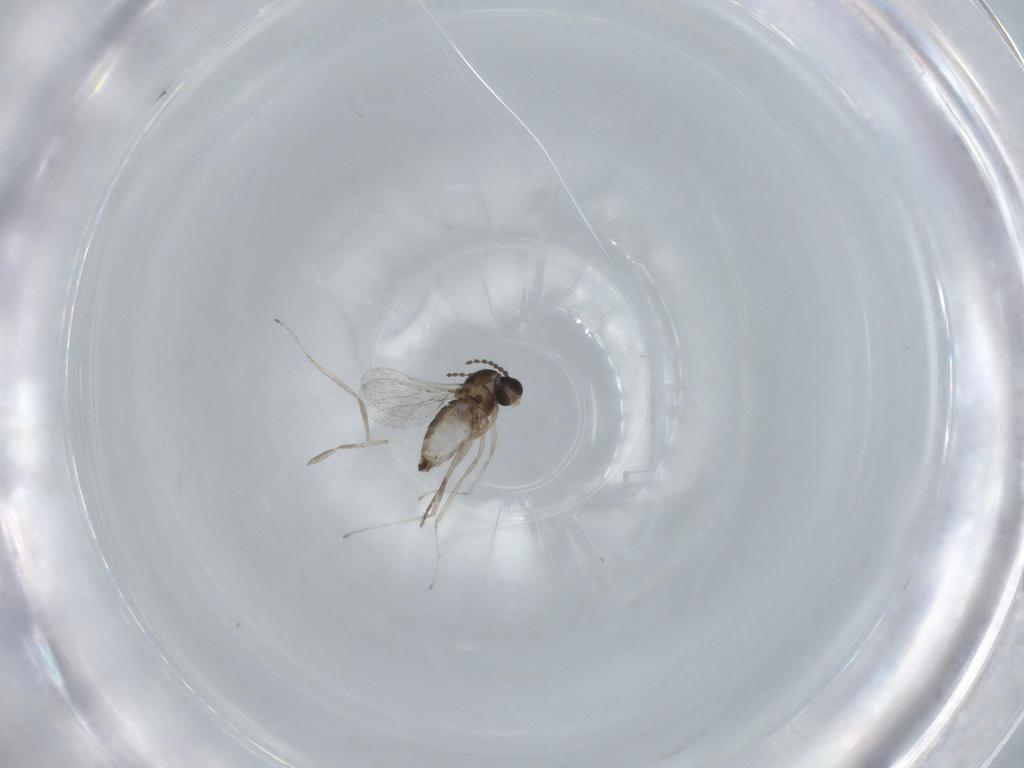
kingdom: Animalia
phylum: Arthropoda
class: Insecta
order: Diptera
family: Cecidomyiidae
